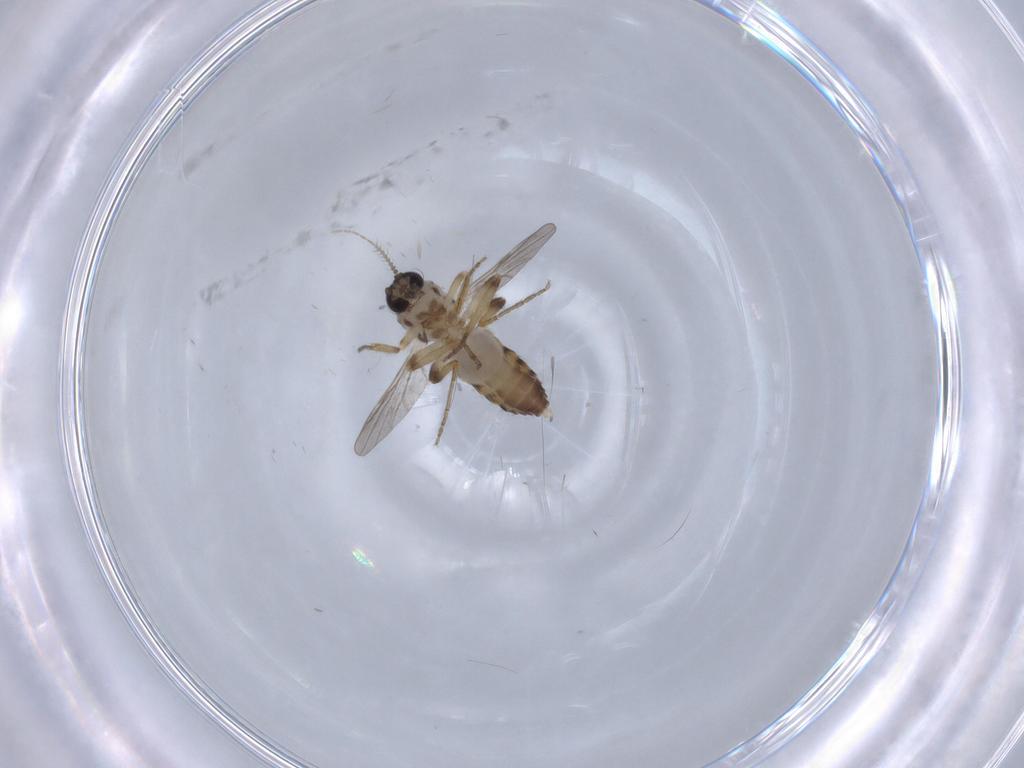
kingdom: Animalia
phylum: Arthropoda
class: Insecta
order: Diptera
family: Ceratopogonidae
